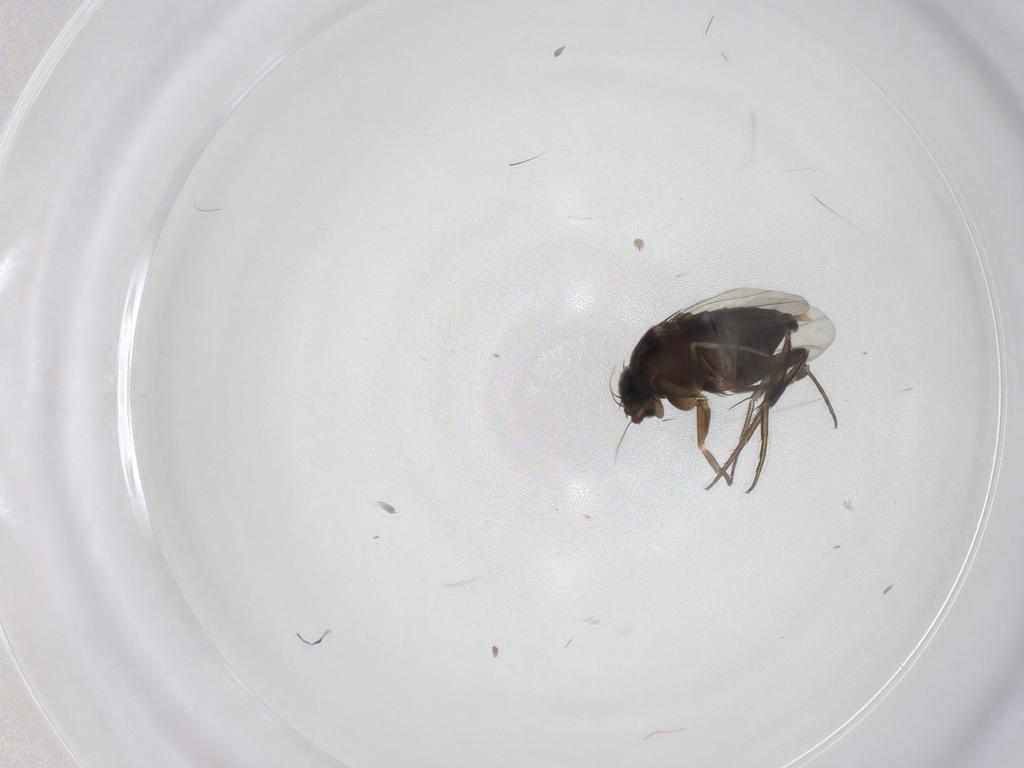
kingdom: Animalia
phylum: Arthropoda
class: Insecta
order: Diptera
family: Phoridae
